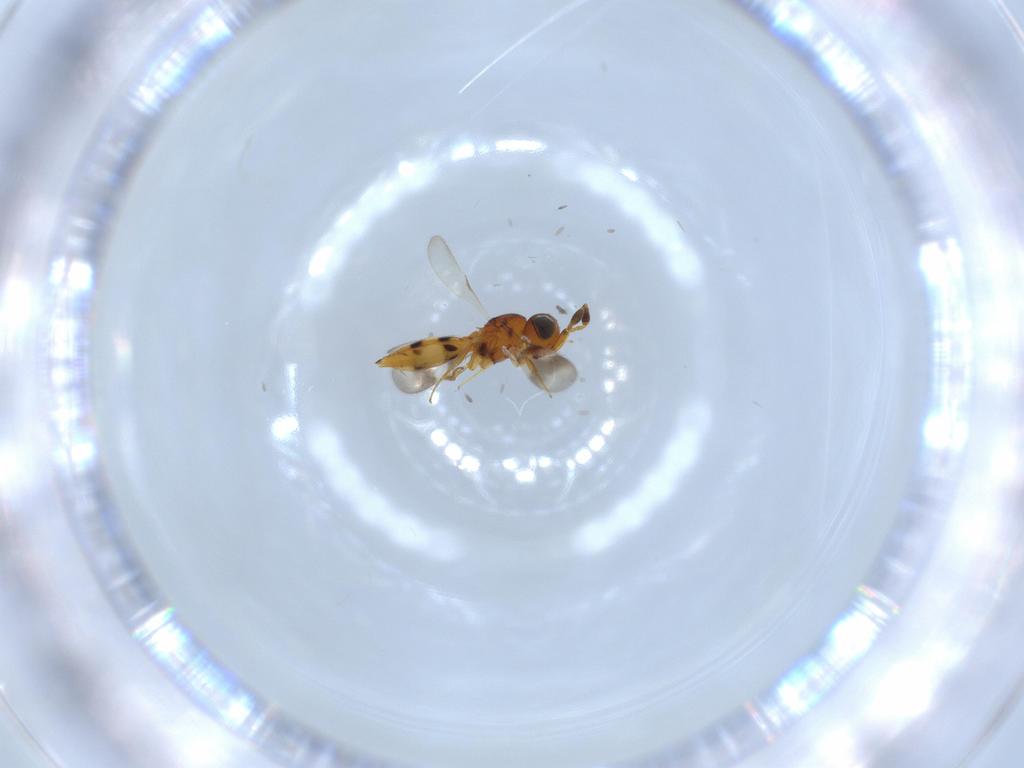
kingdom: Animalia
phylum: Arthropoda
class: Insecta
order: Hymenoptera
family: Scelionidae
